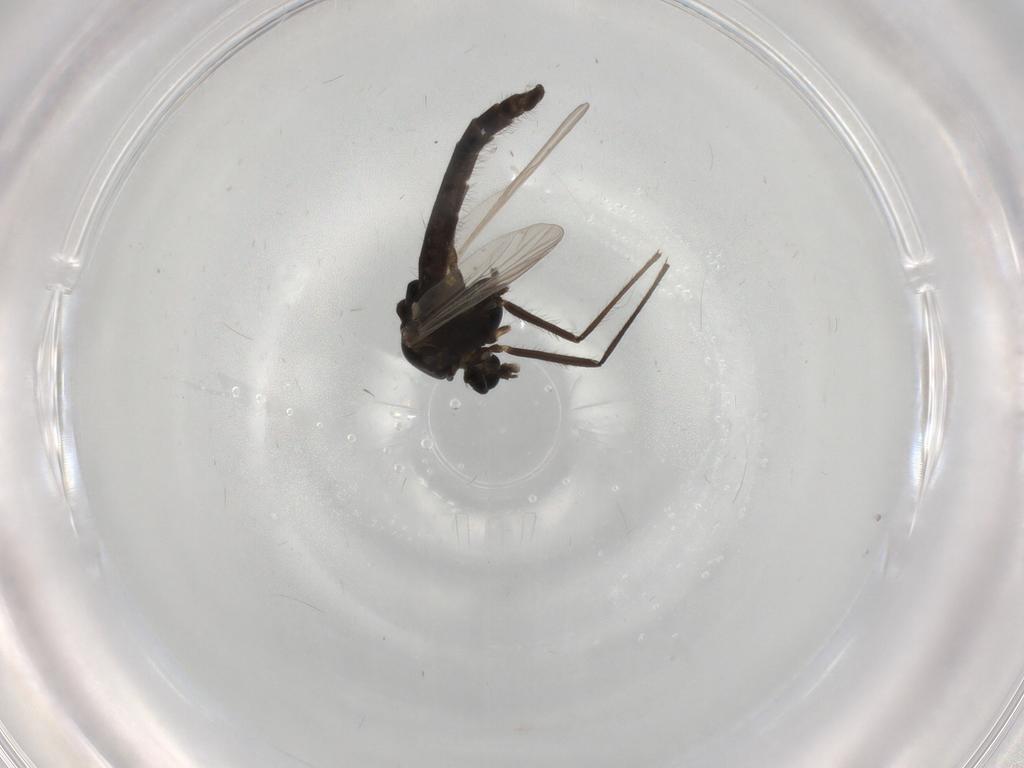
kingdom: Animalia
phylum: Arthropoda
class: Insecta
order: Diptera
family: Chironomidae
